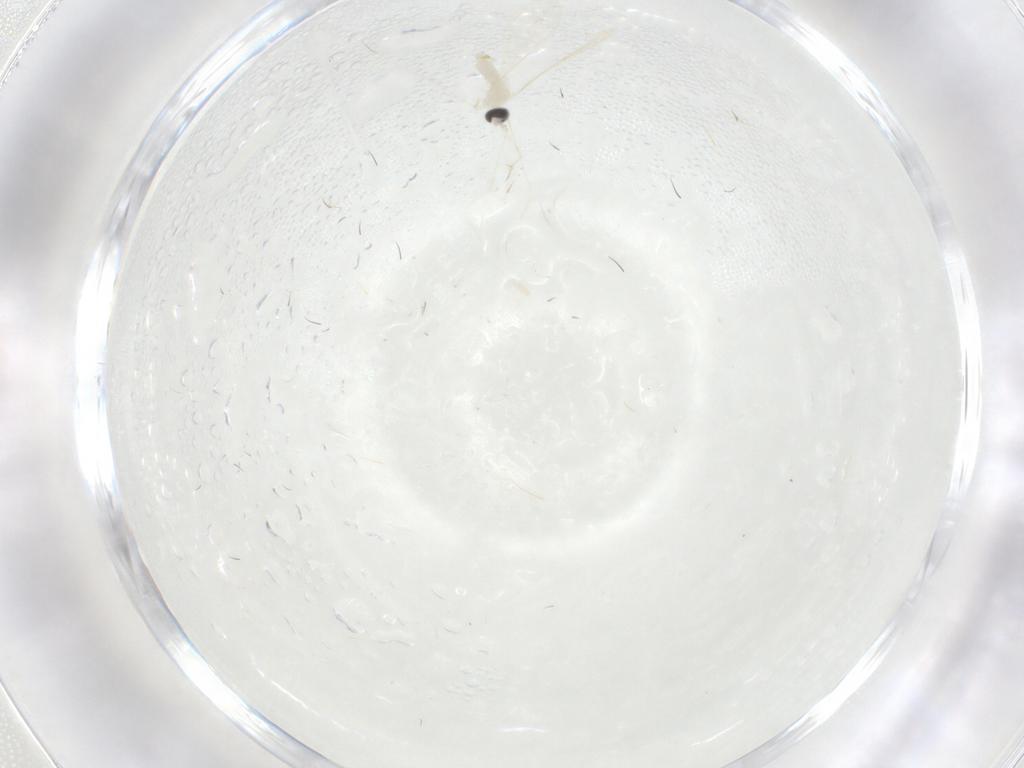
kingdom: Animalia
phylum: Arthropoda
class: Insecta
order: Diptera
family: Cecidomyiidae
